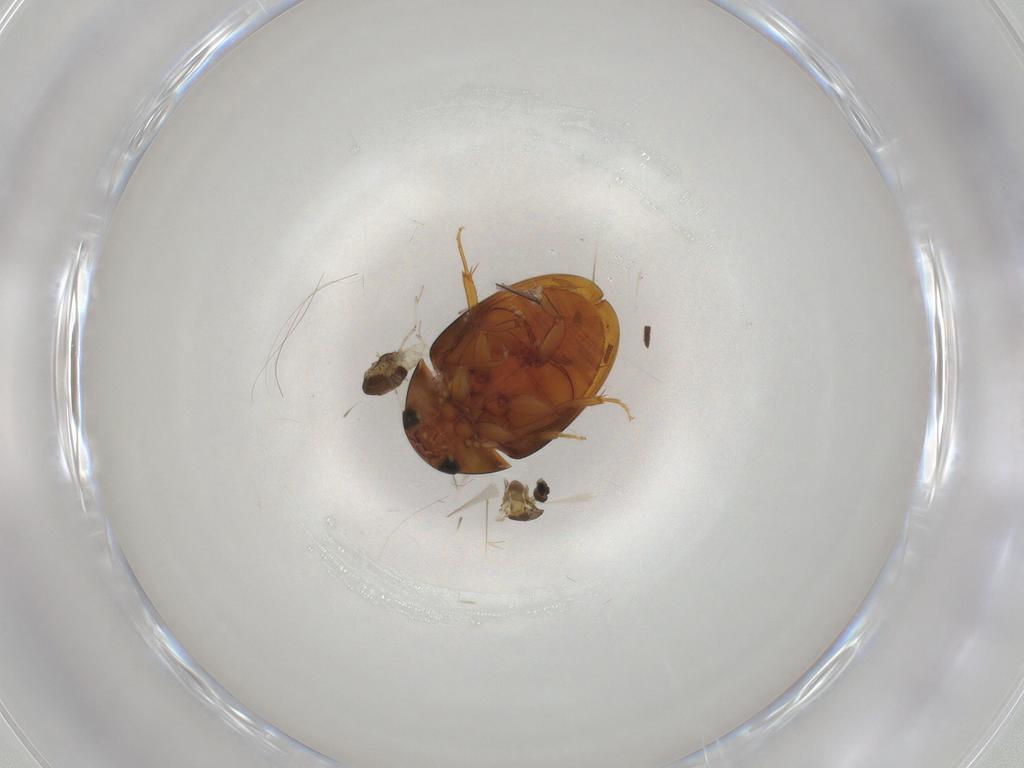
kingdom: Animalia
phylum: Arthropoda
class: Insecta
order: Coleoptera
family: Phalacridae
